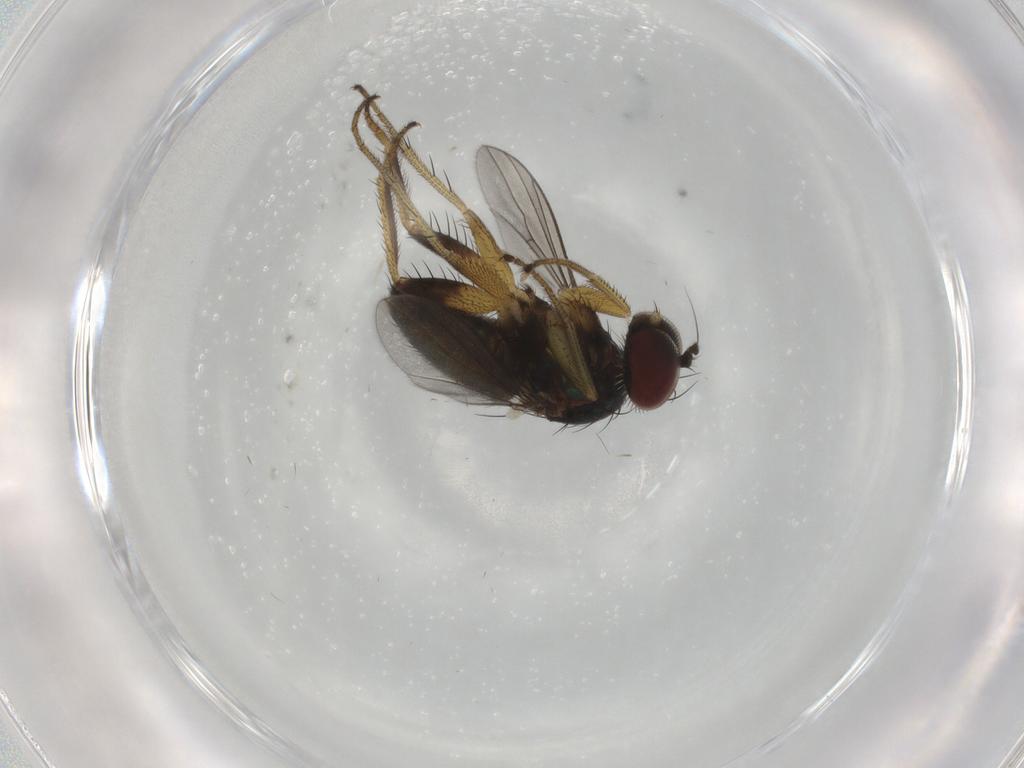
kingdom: Animalia
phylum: Arthropoda
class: Insecta
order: Diptera
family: Dolichopodidae
